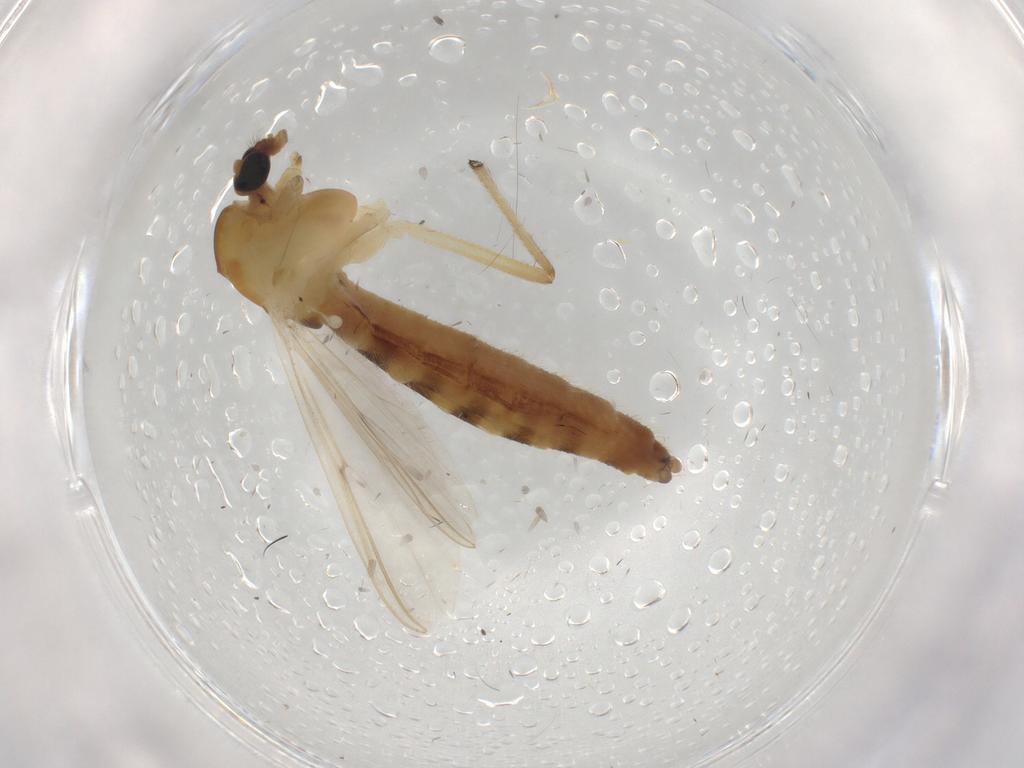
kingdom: Animalia
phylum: Arthropoda
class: Insecta
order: Diptera
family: Chironomidae
